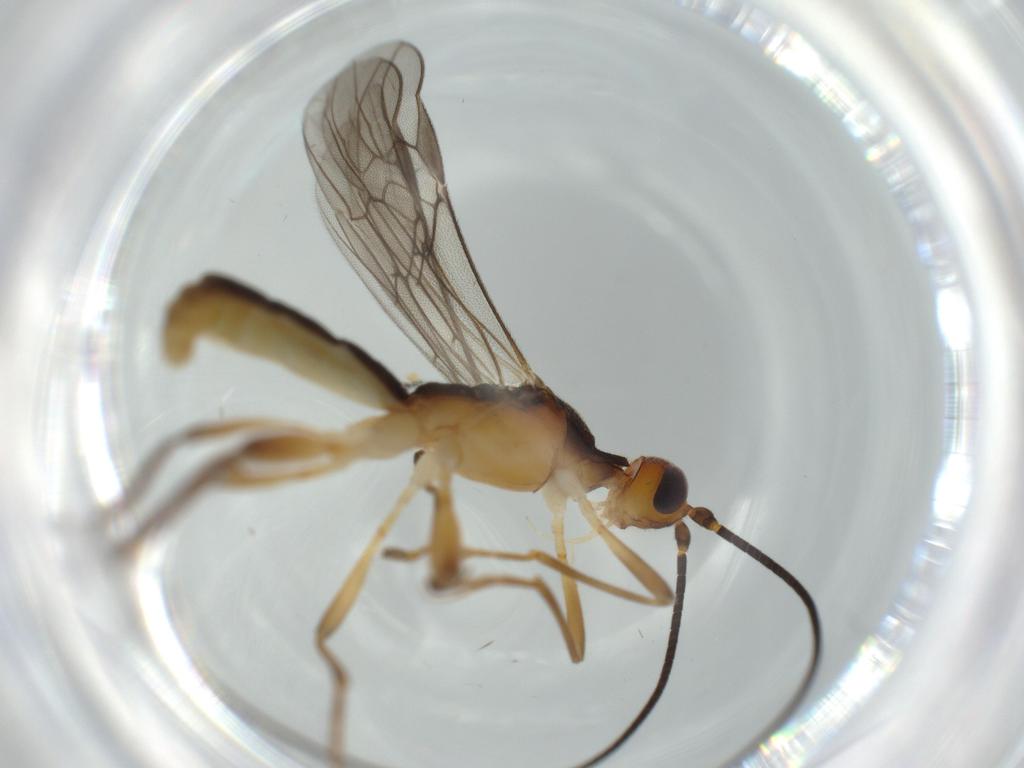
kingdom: Animalia
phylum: Arthropoda
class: Insecta
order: Hymenoptera
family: Diapriidae
